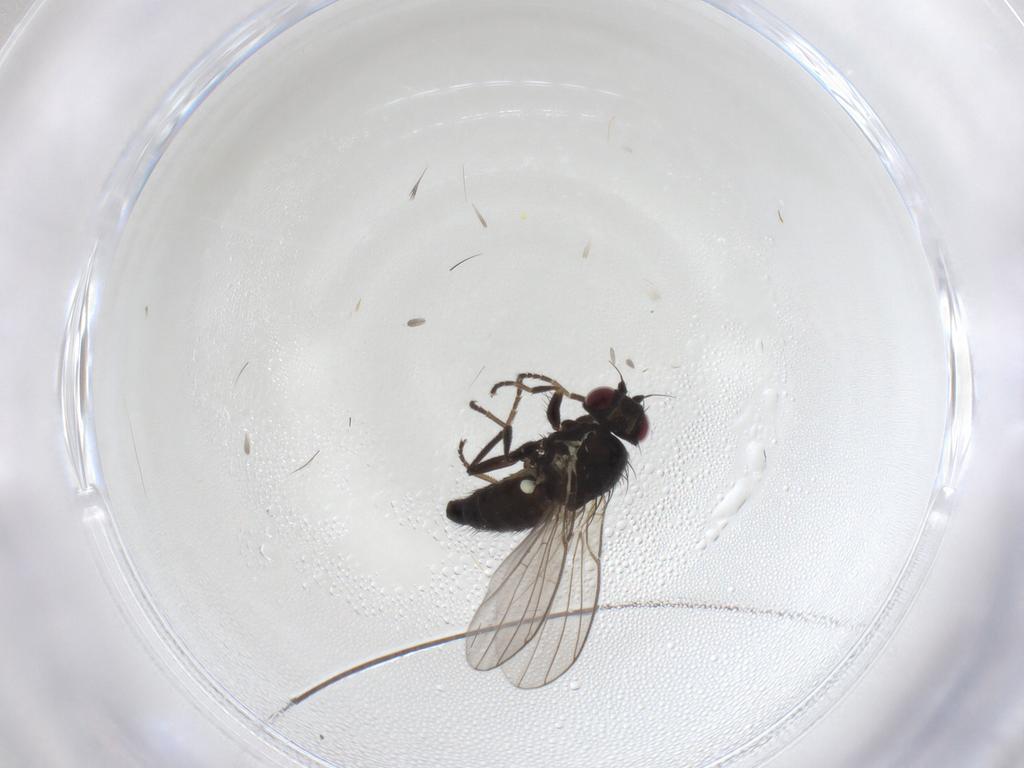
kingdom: Animalia
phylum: Arthropoda
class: Insecta
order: Diptera
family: Agromyzidae
